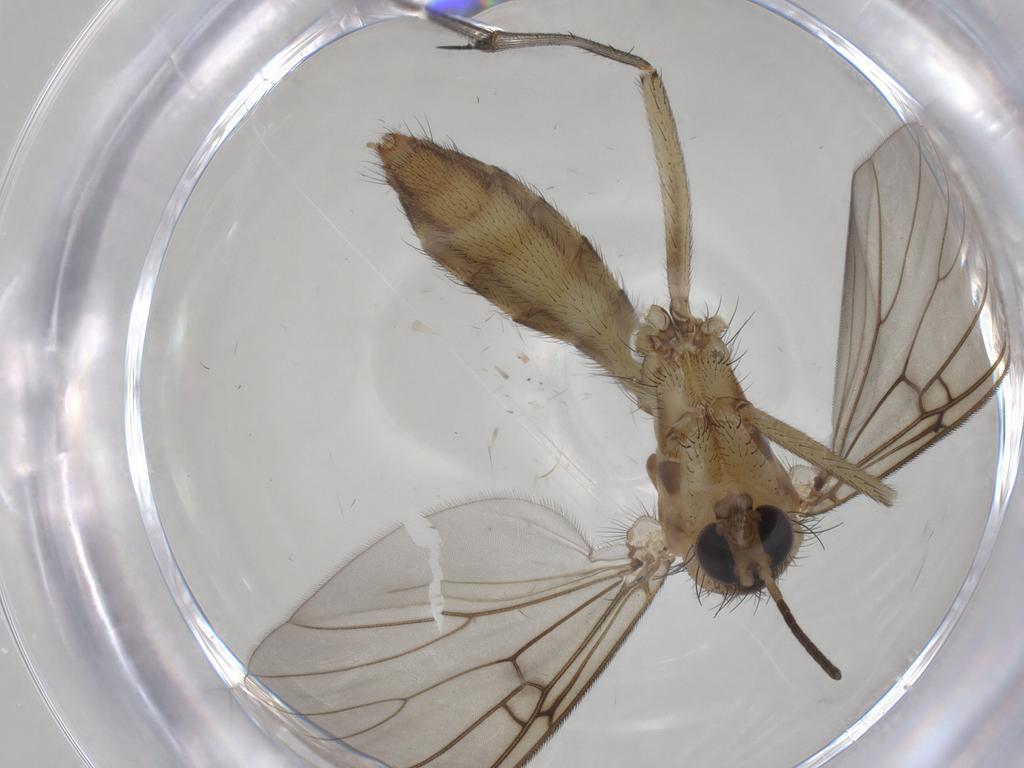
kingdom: Animalia
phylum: Arthropoda
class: Insecta
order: Diptera
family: Mycetophilidae
